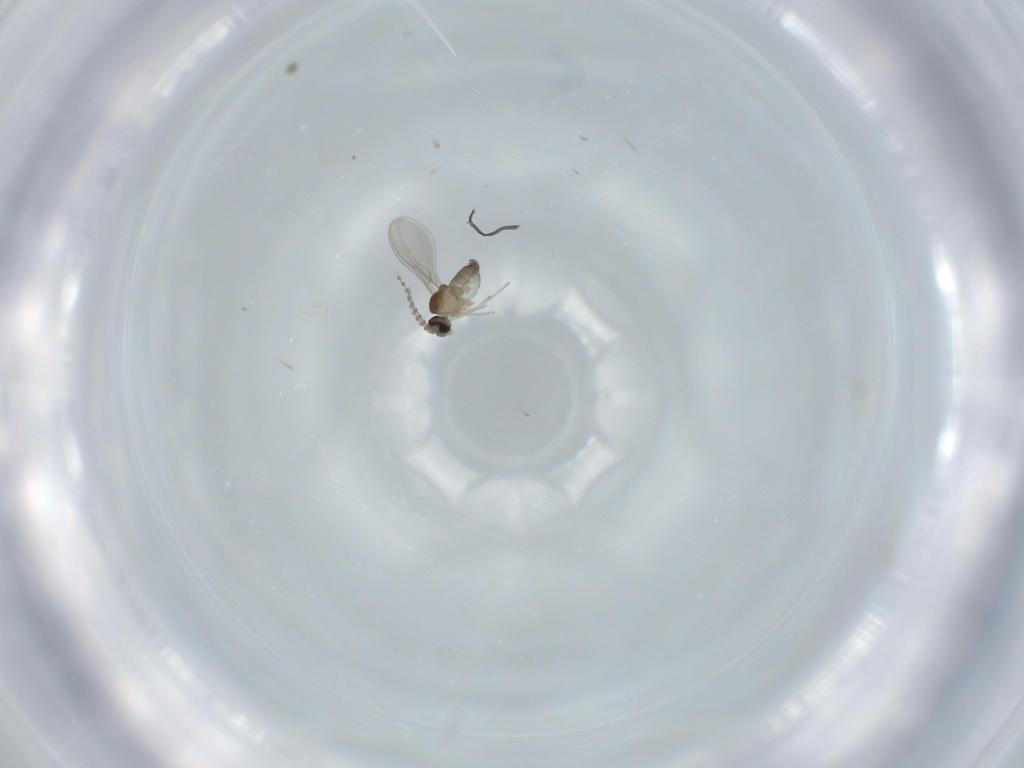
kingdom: Animalia
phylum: Arthropoda
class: Insecta
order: Diptera
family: Cecidomyiidae
